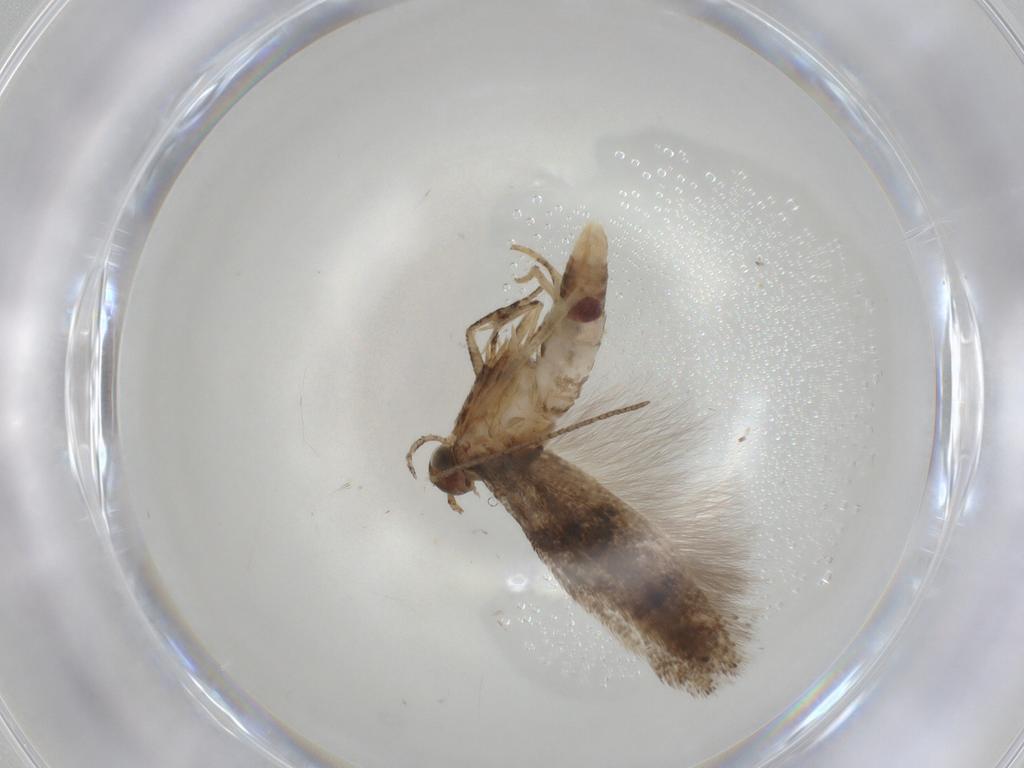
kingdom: Animalia
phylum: Arthropoda
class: Insecta
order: Lepidoptera
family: Gelechiidae
